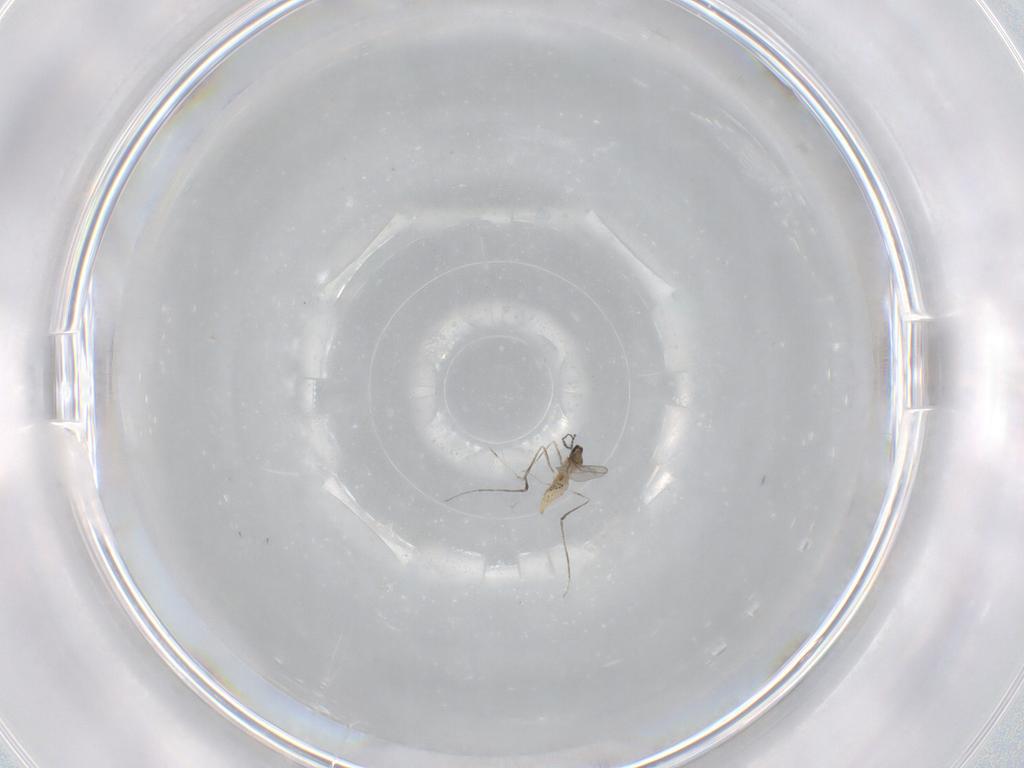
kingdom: Animalia
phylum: Arthropoda
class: Insecta
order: Diptera
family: Cecidomyiidae
